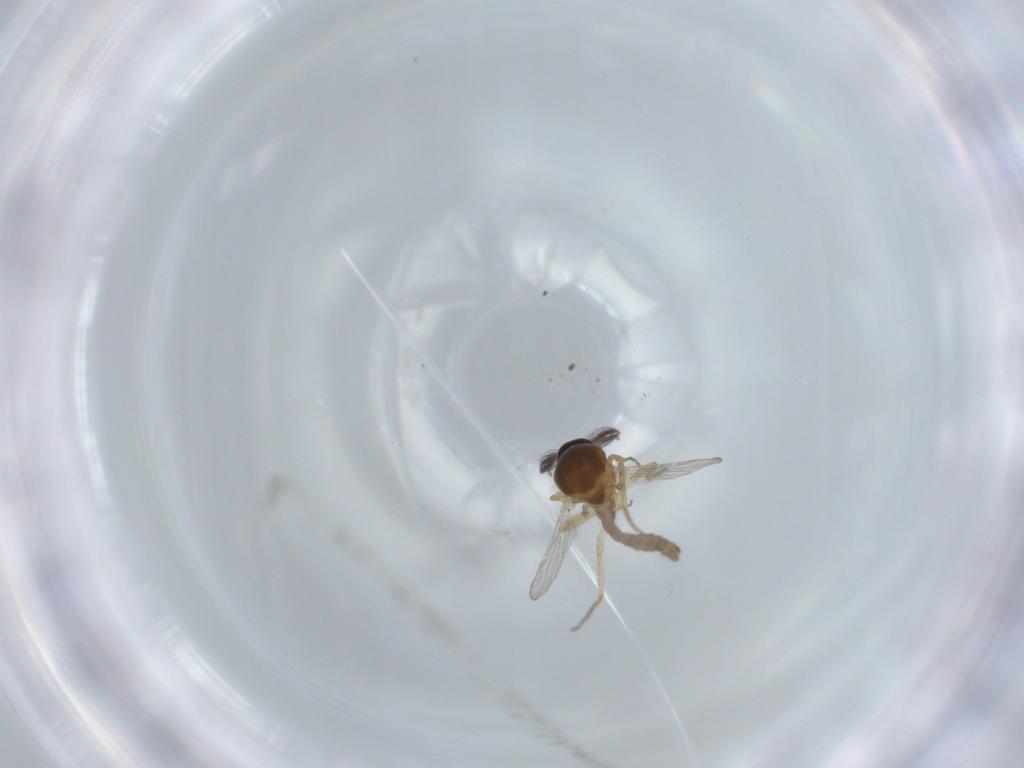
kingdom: Animalia
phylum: Arthropoda
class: Insecta
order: Diptera
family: Ceratopogonidae
